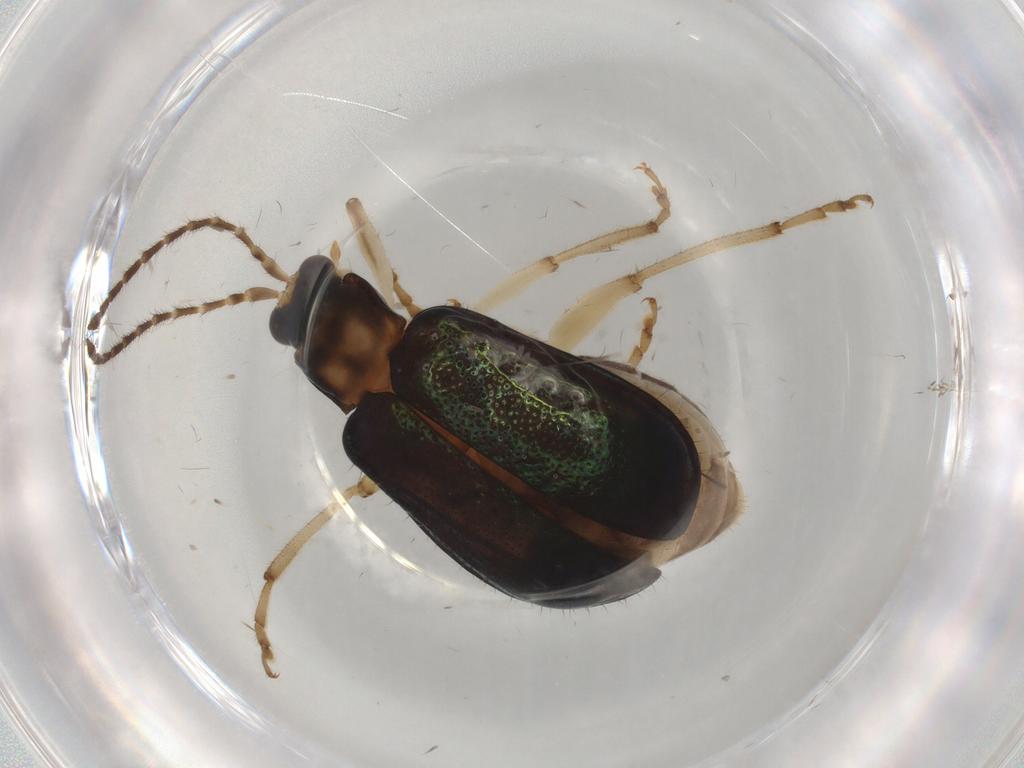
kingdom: Animalia
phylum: Arthropoda
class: Insecta
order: Coleoptera
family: Chrysomelidae
